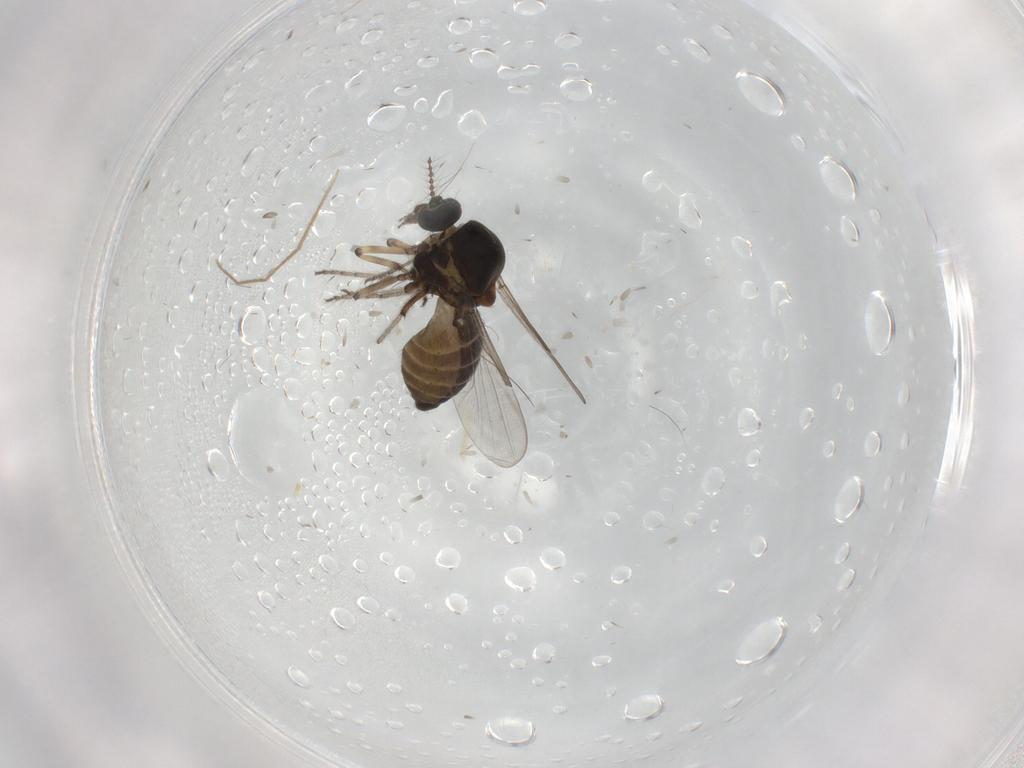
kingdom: Animalia
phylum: Arthropoda
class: Insecta
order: Diptera
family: Ceratopogonidae
